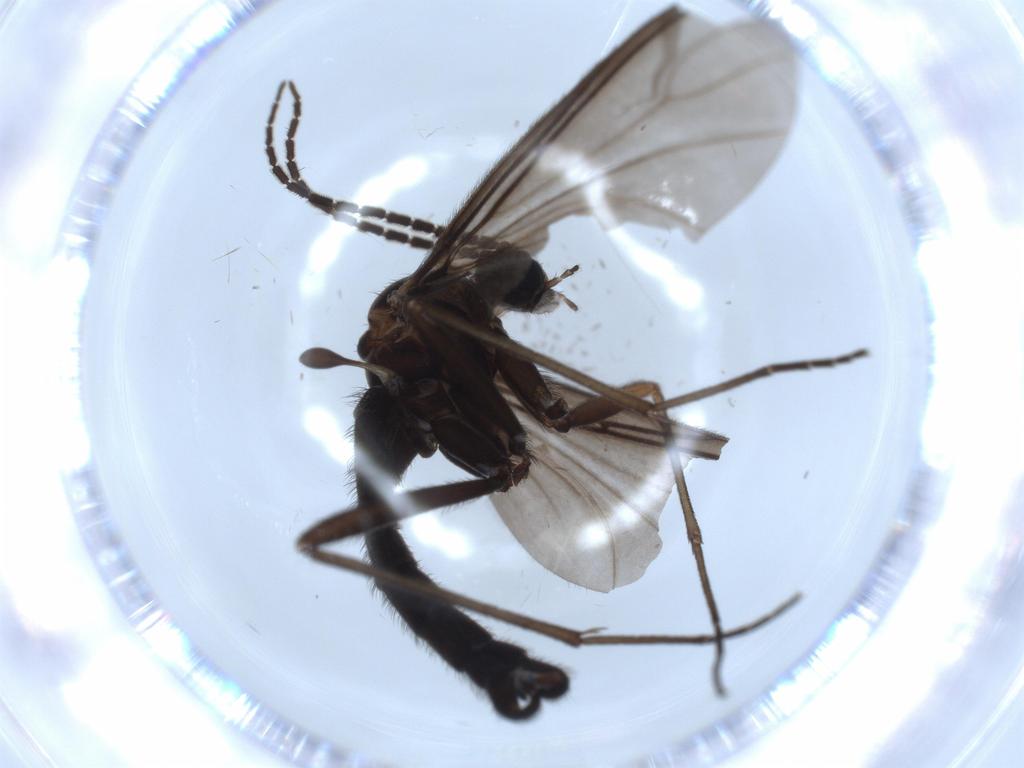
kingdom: Animalia
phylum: Arthropoda
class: Insecta
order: Diptera
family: Sciaridae
